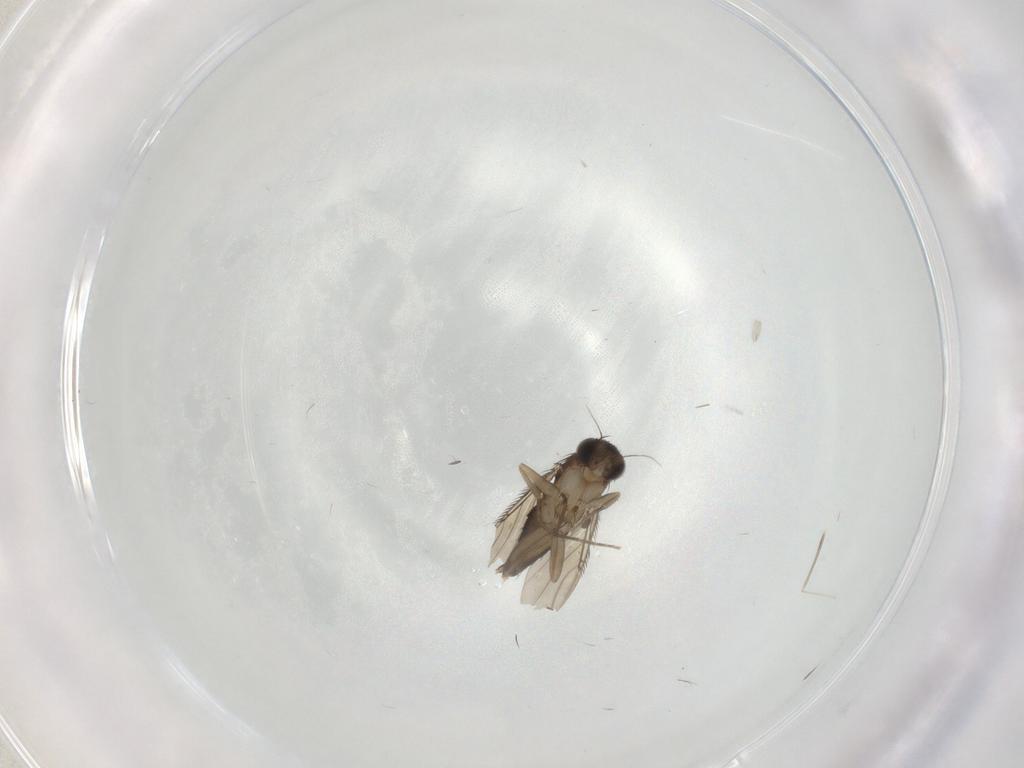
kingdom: Animalia
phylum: Arthropoda
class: Insecta
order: Diptera
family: Phoridae
